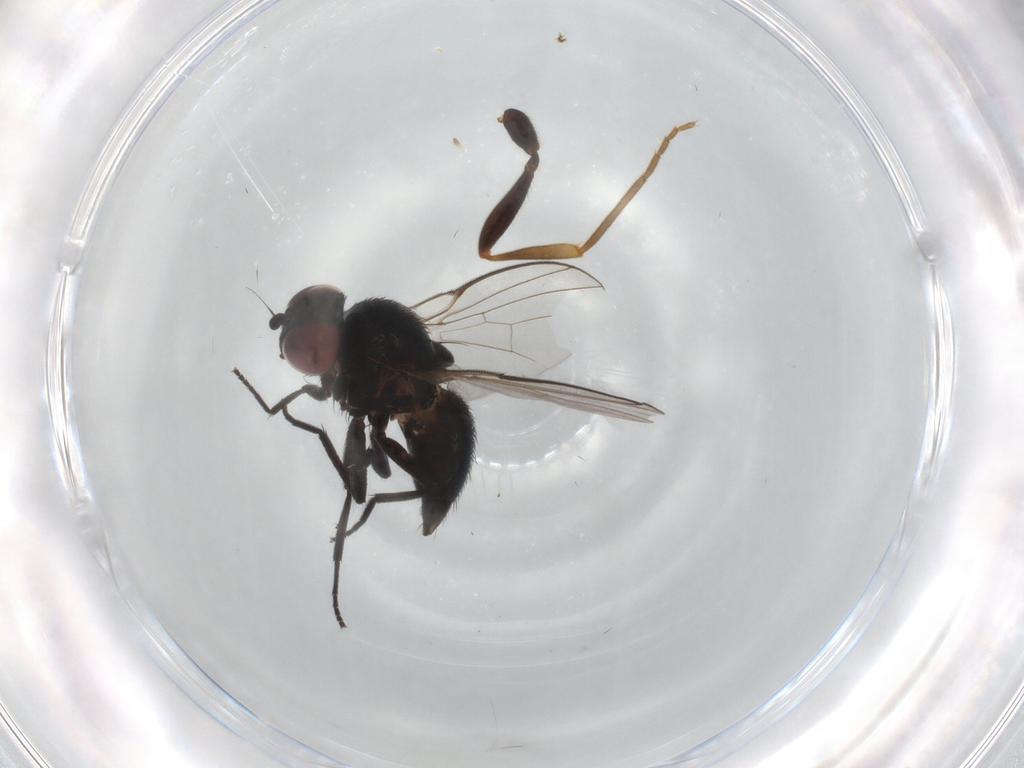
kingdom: Animalia
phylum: Arthropoda
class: Insecta
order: Diptera
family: Agromyzidae
